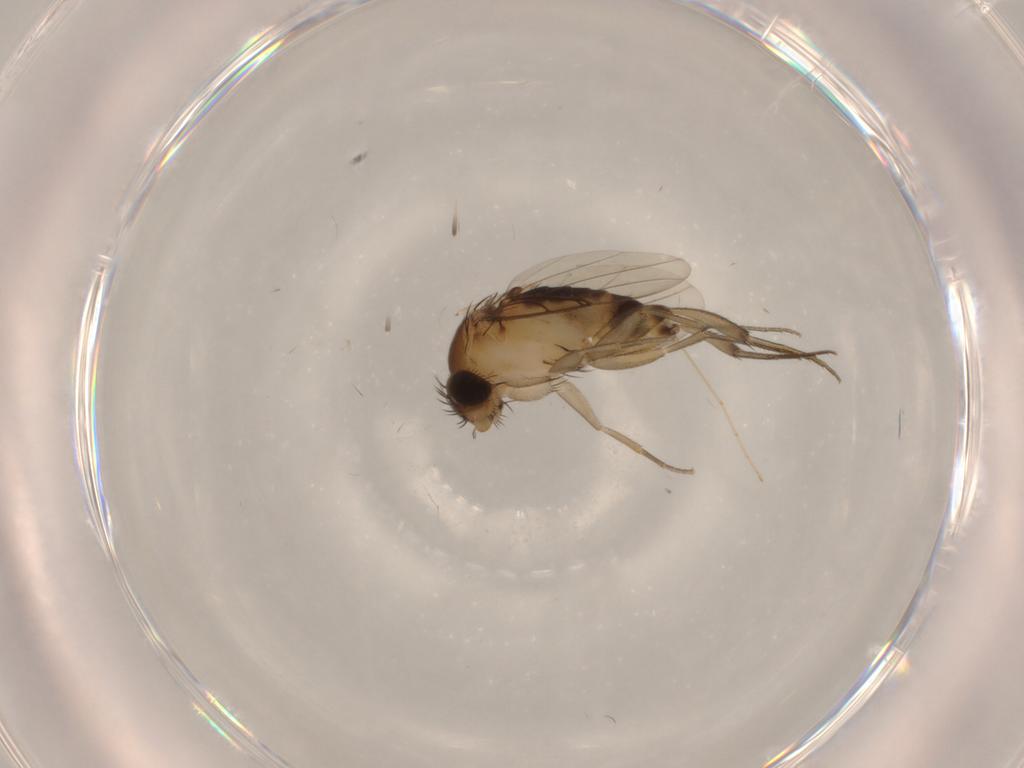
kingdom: Animalia
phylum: Arthropoda
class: Insecta
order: Diptera
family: Phoridae
